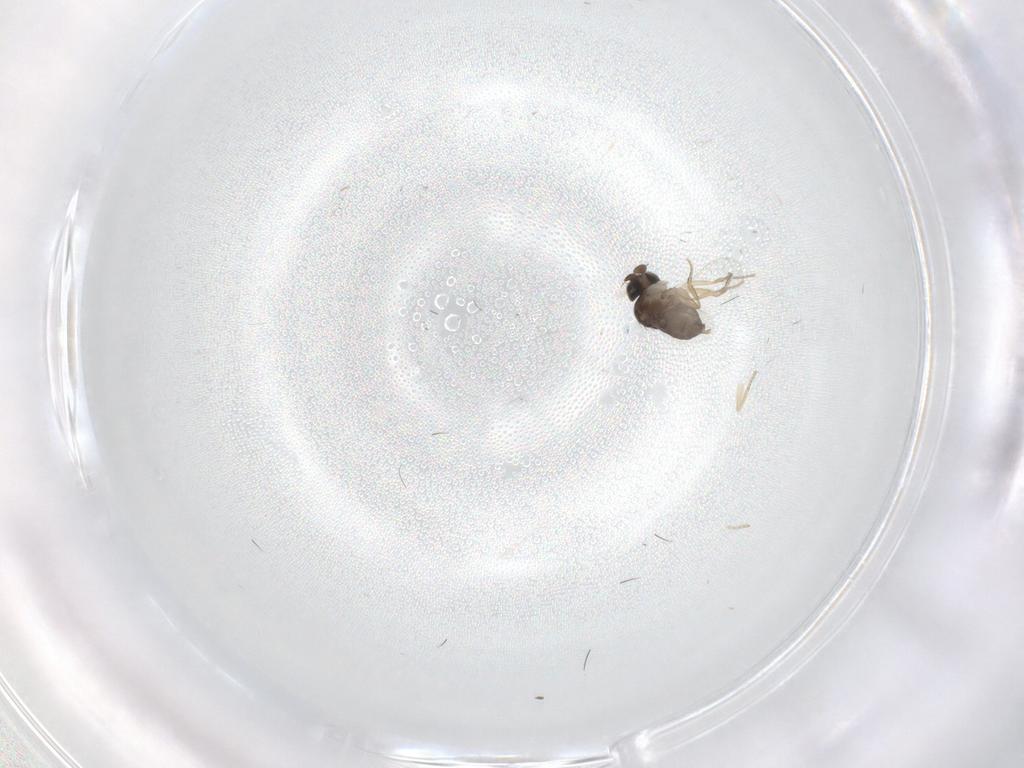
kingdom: Animalia
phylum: Arthropoda
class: Insecta
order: Diptera
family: Phoridae
